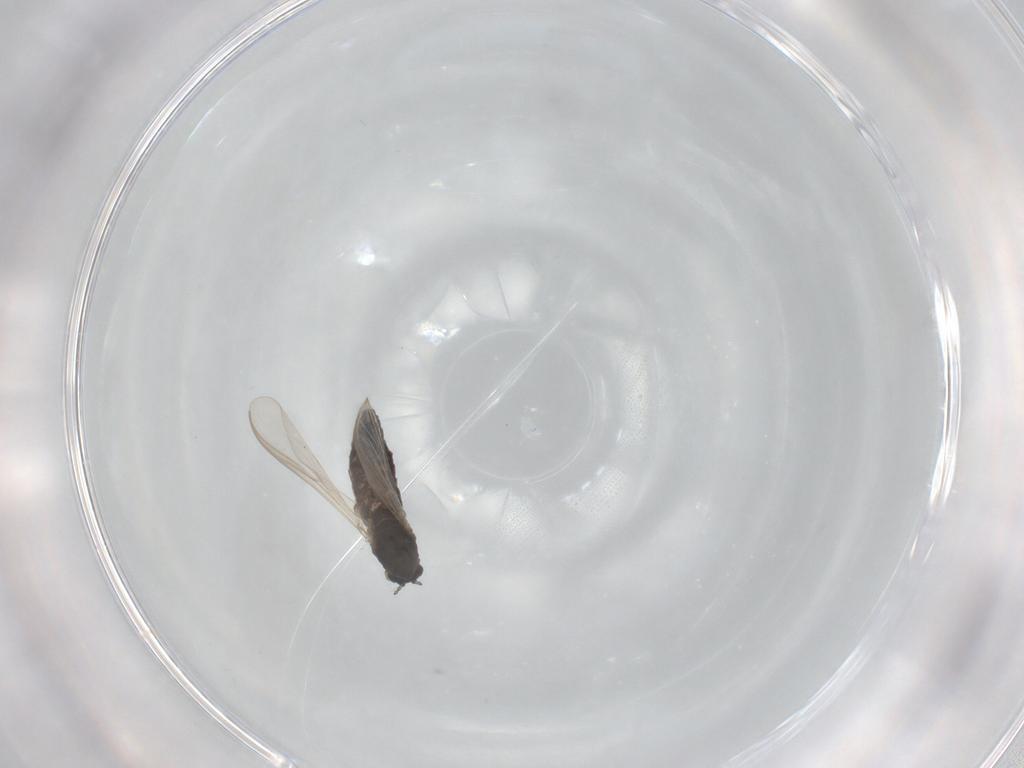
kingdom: Animalia
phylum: Arthropoda
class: Insecta
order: Diptera
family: Chironomidae
